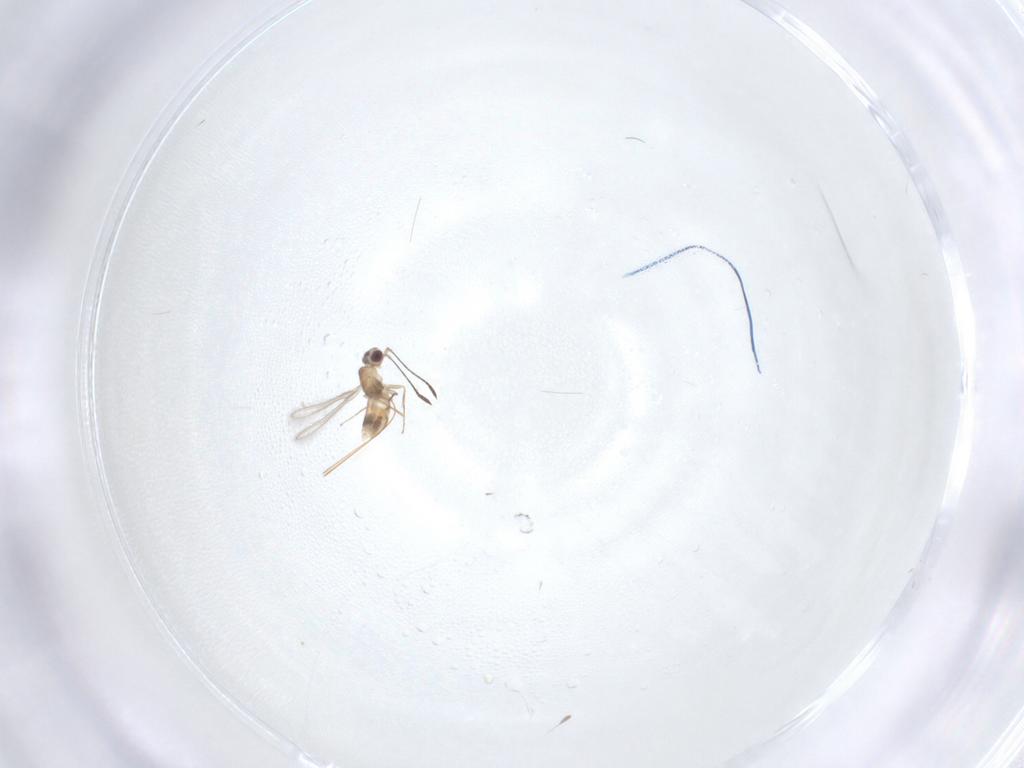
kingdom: Animalia
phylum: Arthropoda
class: Insecta
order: Hymenoptera
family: Mymaridae
